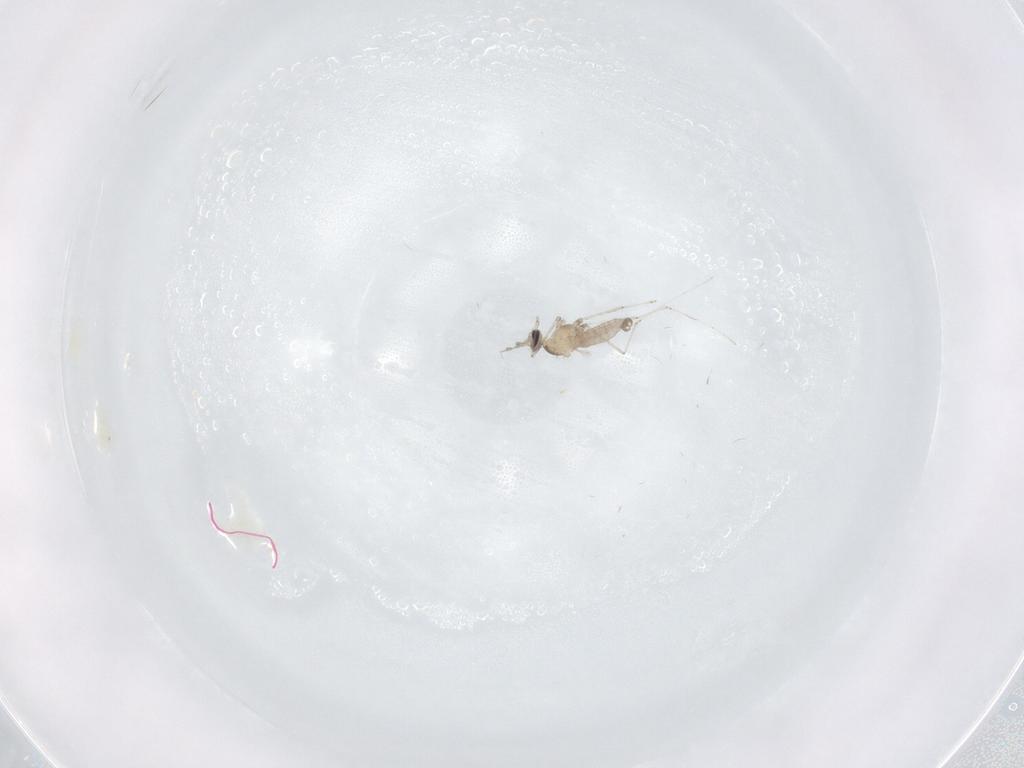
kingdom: Animalia
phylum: Arthropoda
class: Insecta
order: Diptera
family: Cecidomyiidae
